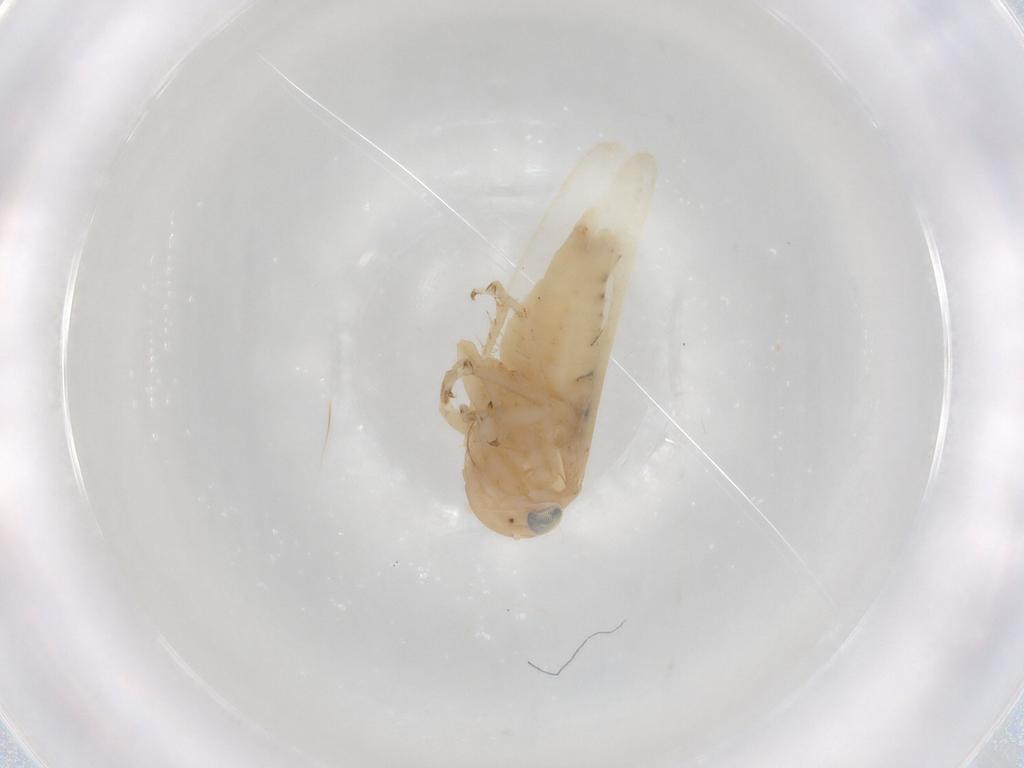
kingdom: Animalia
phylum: Arthropoda
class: Insecta
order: Hemiptera
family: Cicadellidae
